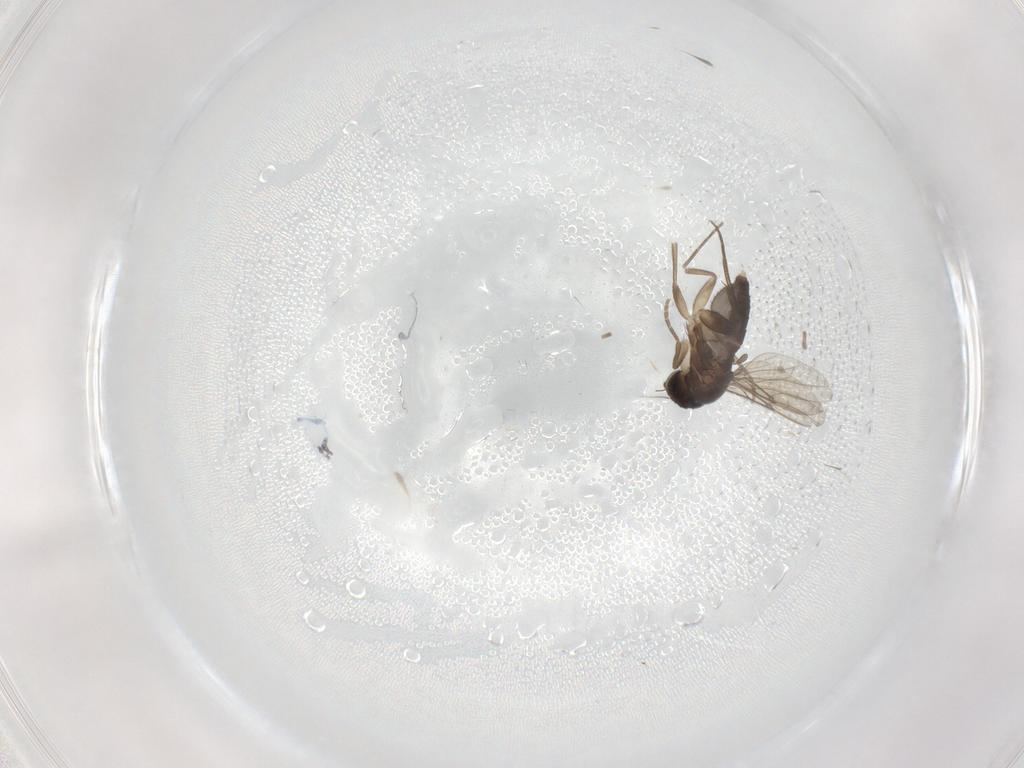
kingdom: Animalia
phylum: Arthropoda
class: Insecta
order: Diptera
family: Phoridae
